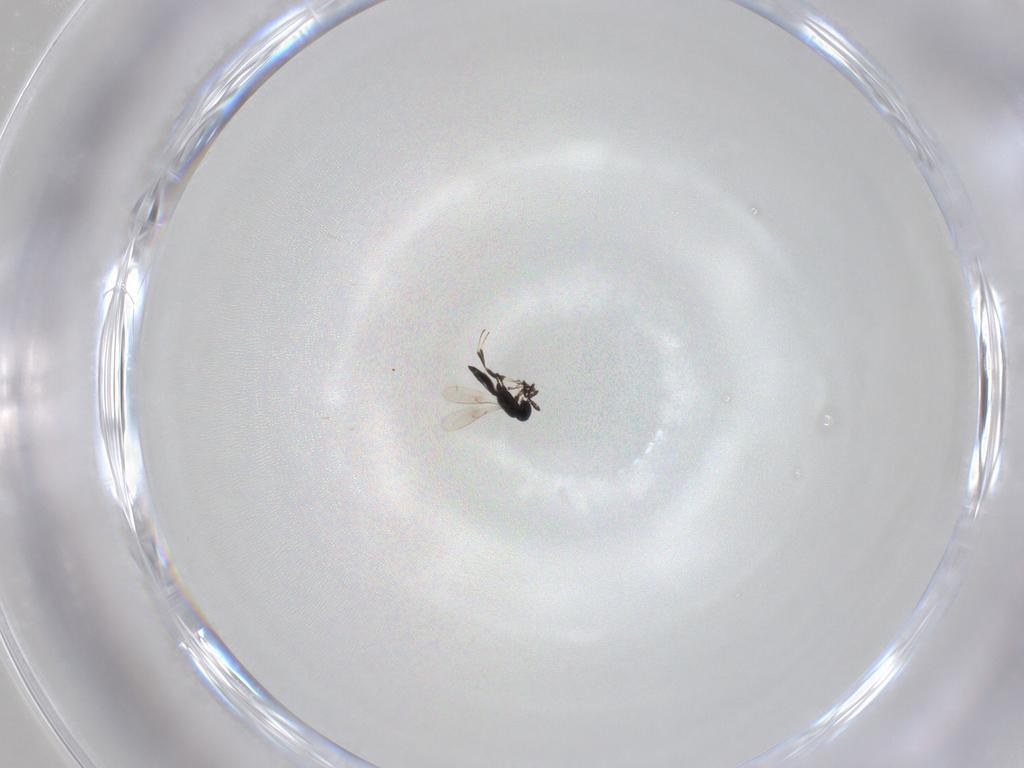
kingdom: Animalia
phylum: Arthropoda
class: Insecta
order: Hymenoptera
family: Scelionidae
